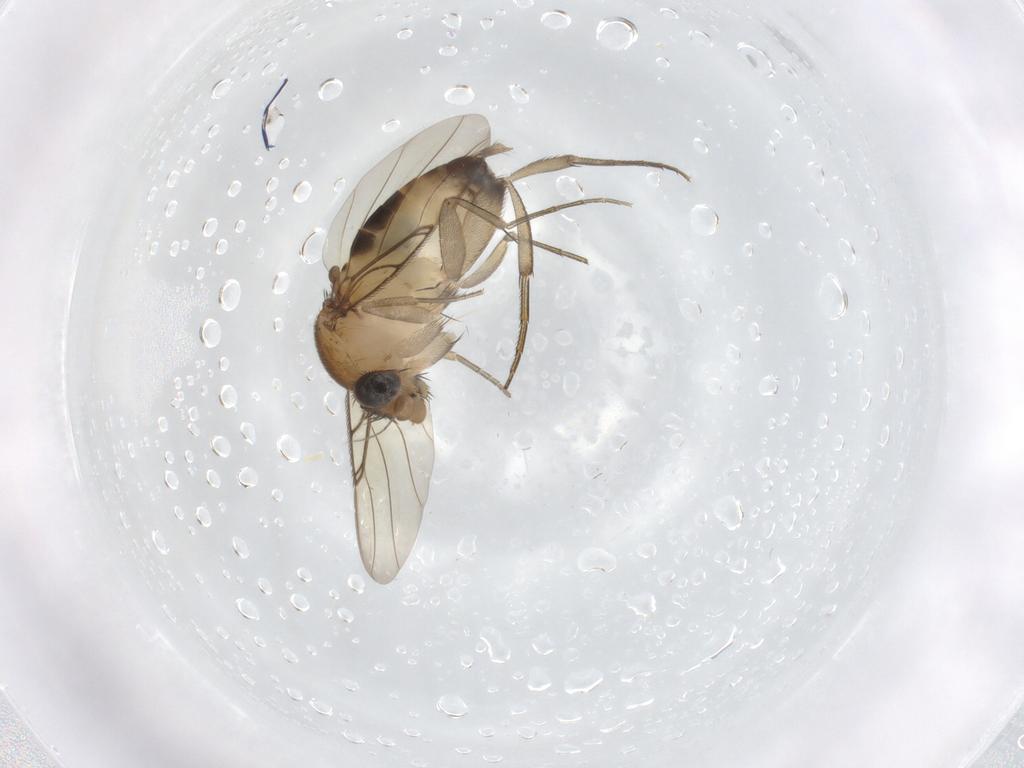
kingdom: Animalia
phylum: Arthropoda
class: Insecta
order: Diptera
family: Phoridae
